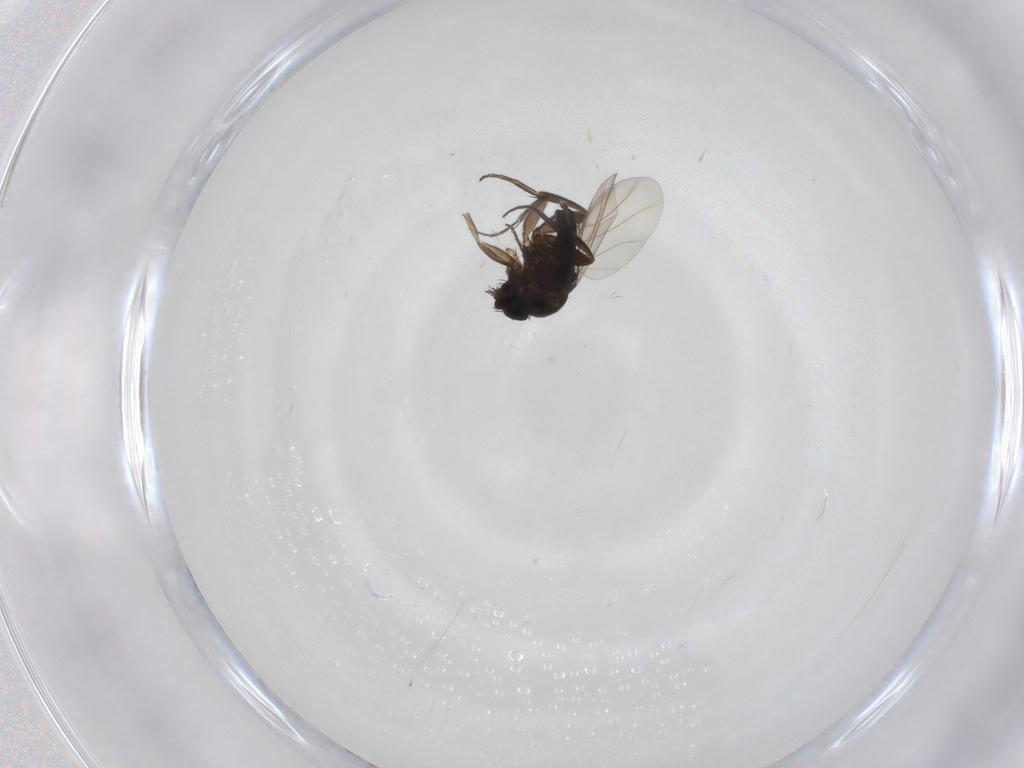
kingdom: Animalia
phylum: Arthropoda
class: Insecta
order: Diptera
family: Phoridae
